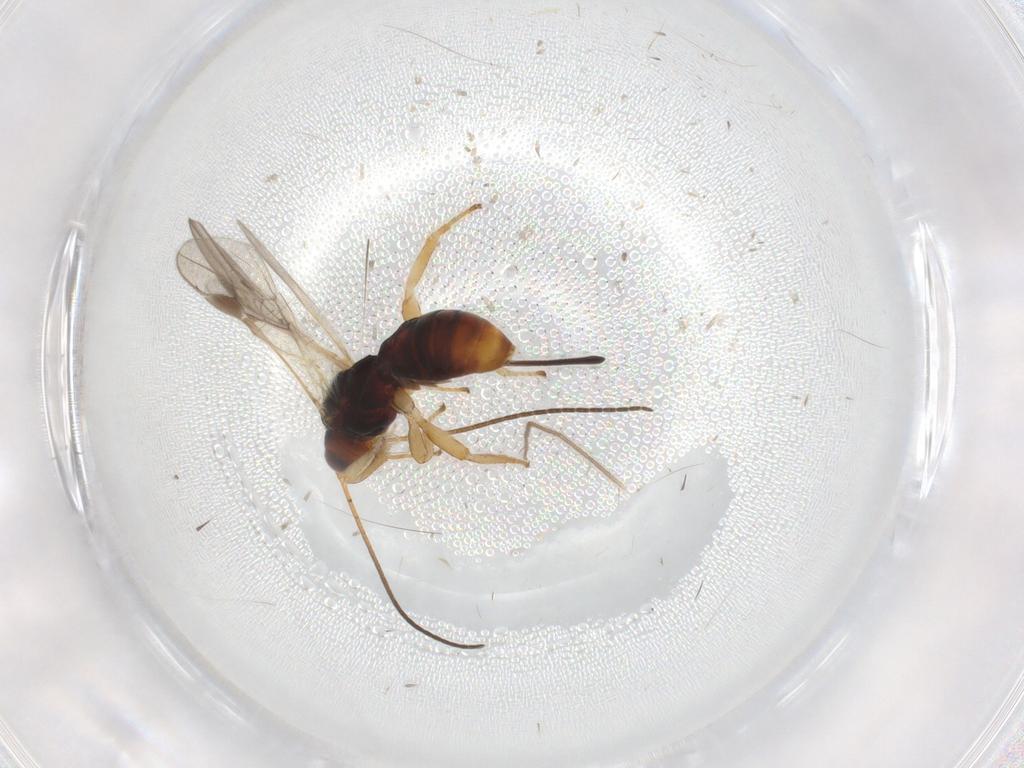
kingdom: Animalia
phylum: Arthropoda
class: Insecta
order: Hymenoptera
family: Braconidae
